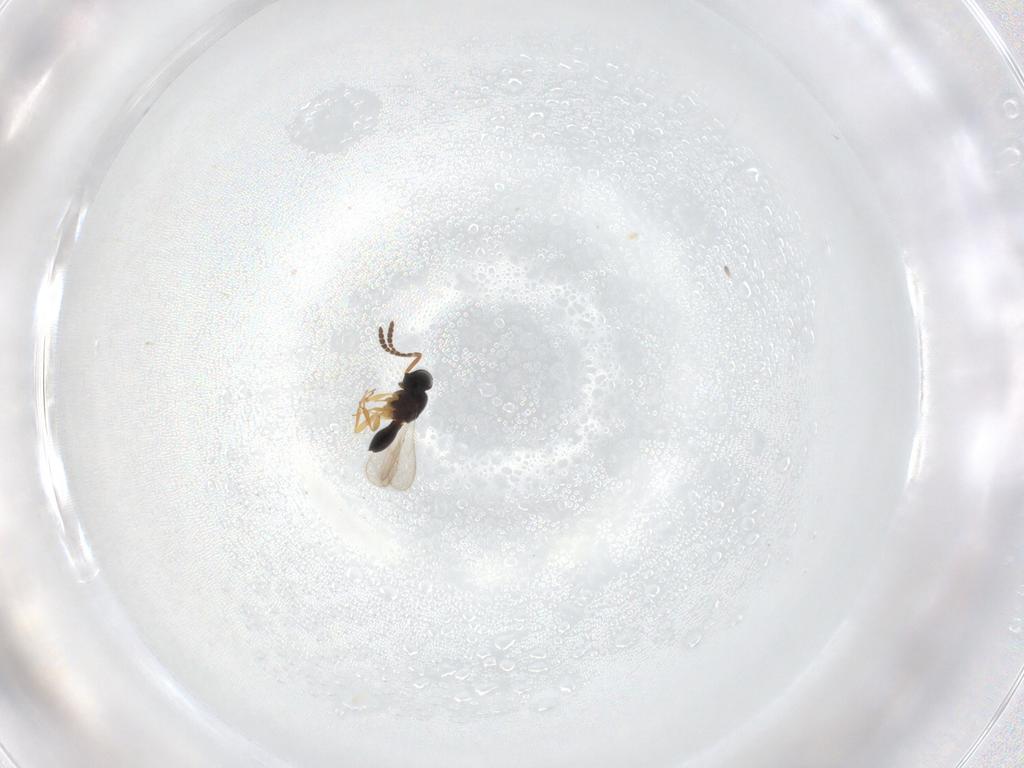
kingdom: Animalia
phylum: Arthropoda
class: Insecta
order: Hymenoptera
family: Scelionidae
